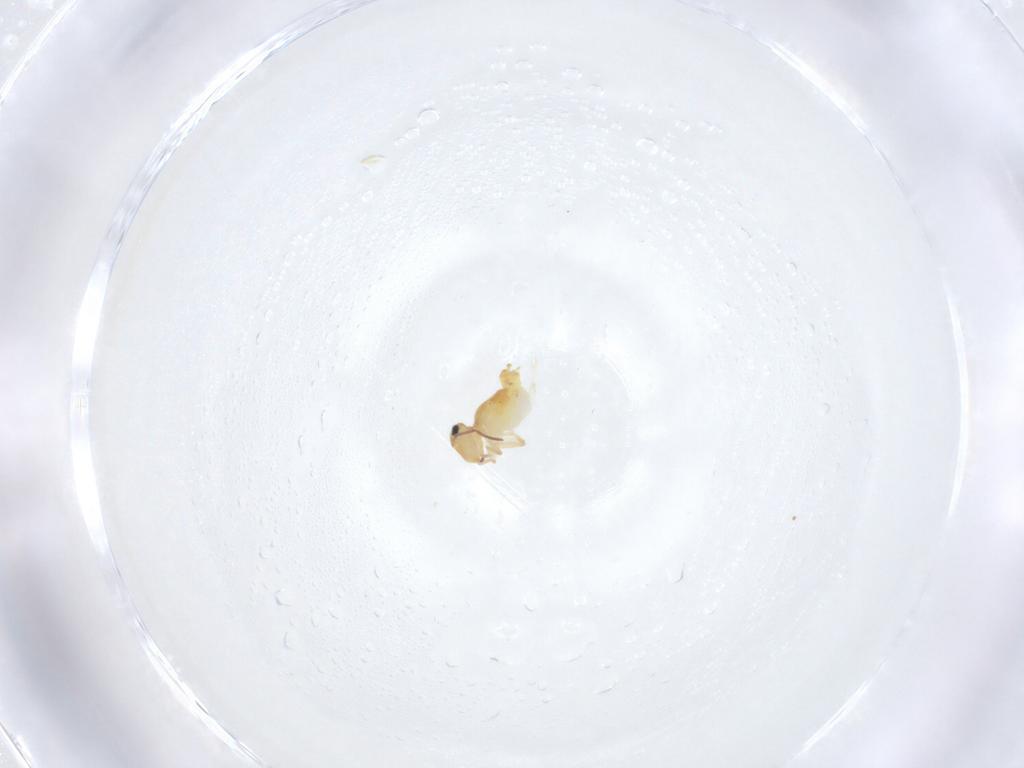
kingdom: Animalia
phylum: Arthropoda
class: Collembola
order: Symphypleona
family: Bourletiellidae
